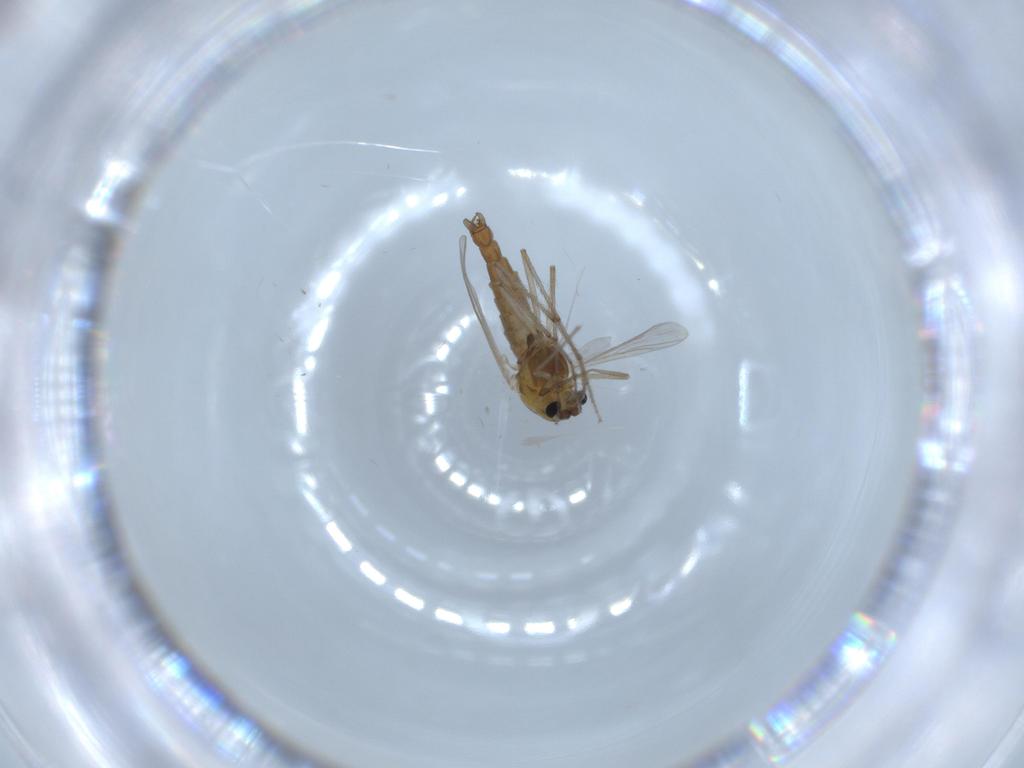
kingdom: Animalia
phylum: Arthropoda
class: Insecta
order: Diptera
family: Chironomidae
